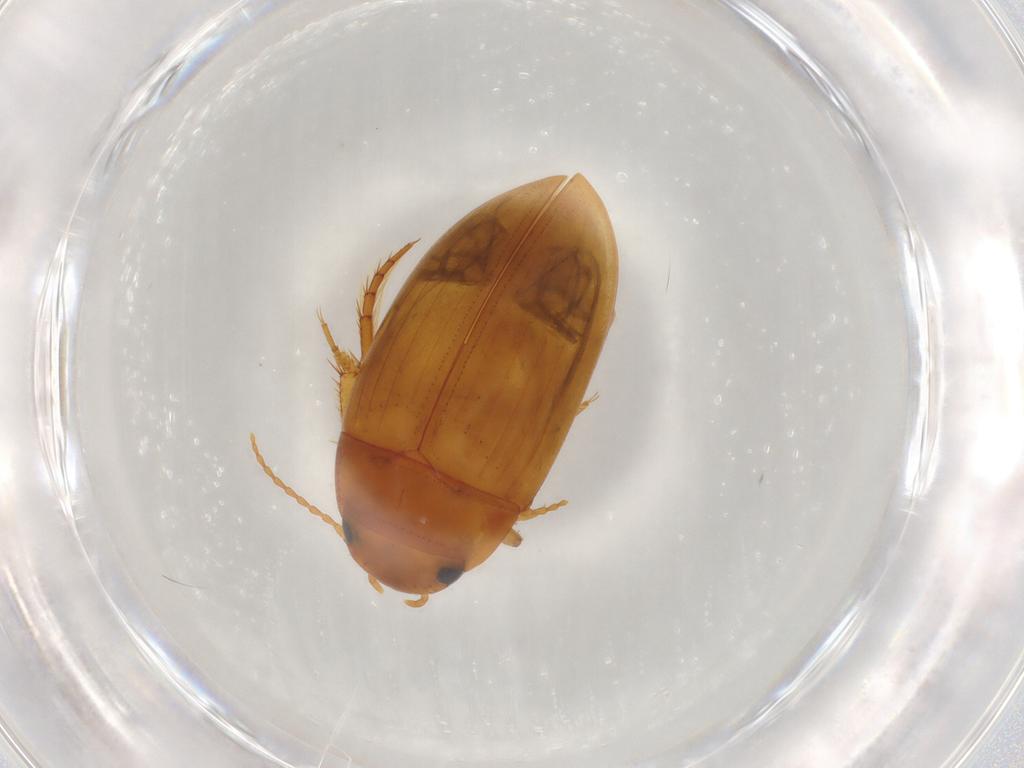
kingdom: Animalia
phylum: Arthropoda
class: Insecta
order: Coleoptera
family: Dytiscidae
